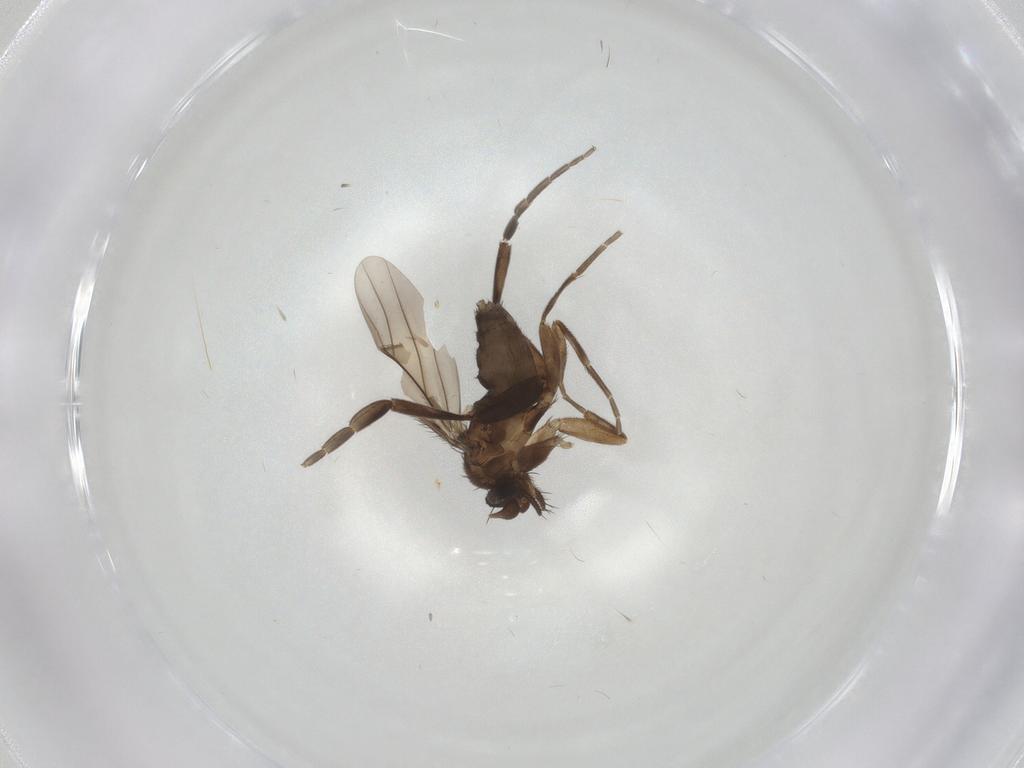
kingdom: Animalia
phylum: Arthropoda
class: Insecta
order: Diptera
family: Phoridae
